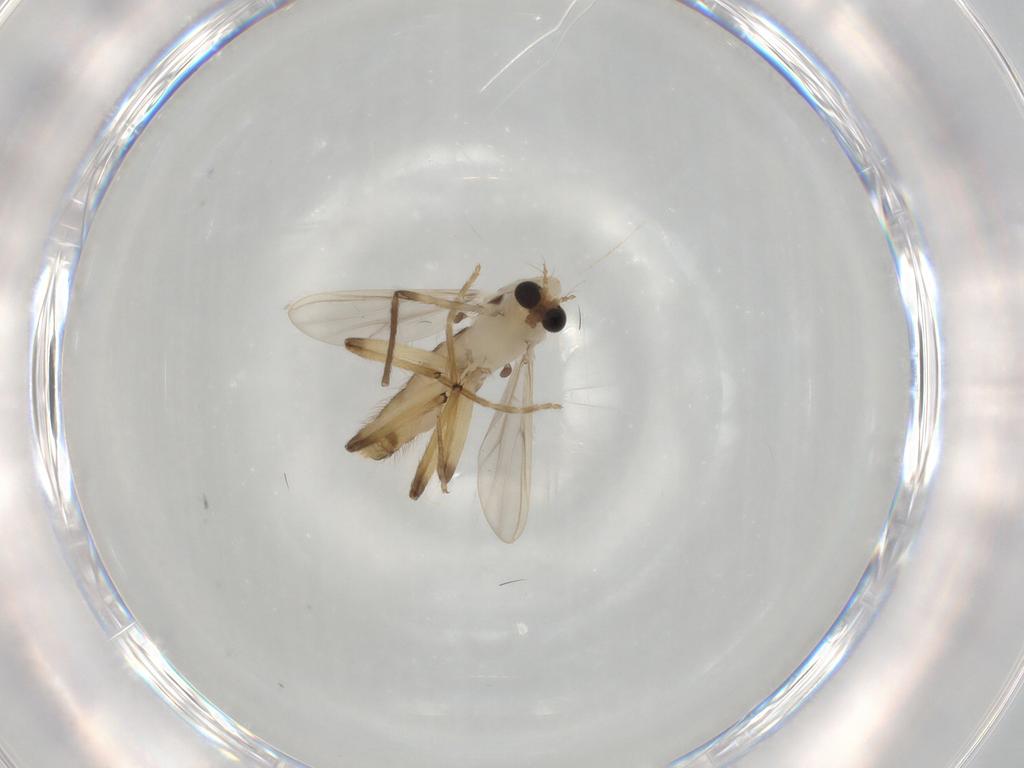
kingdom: Animalia
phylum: Arthropoda
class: Insecta
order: Diptera
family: Chironomidae
